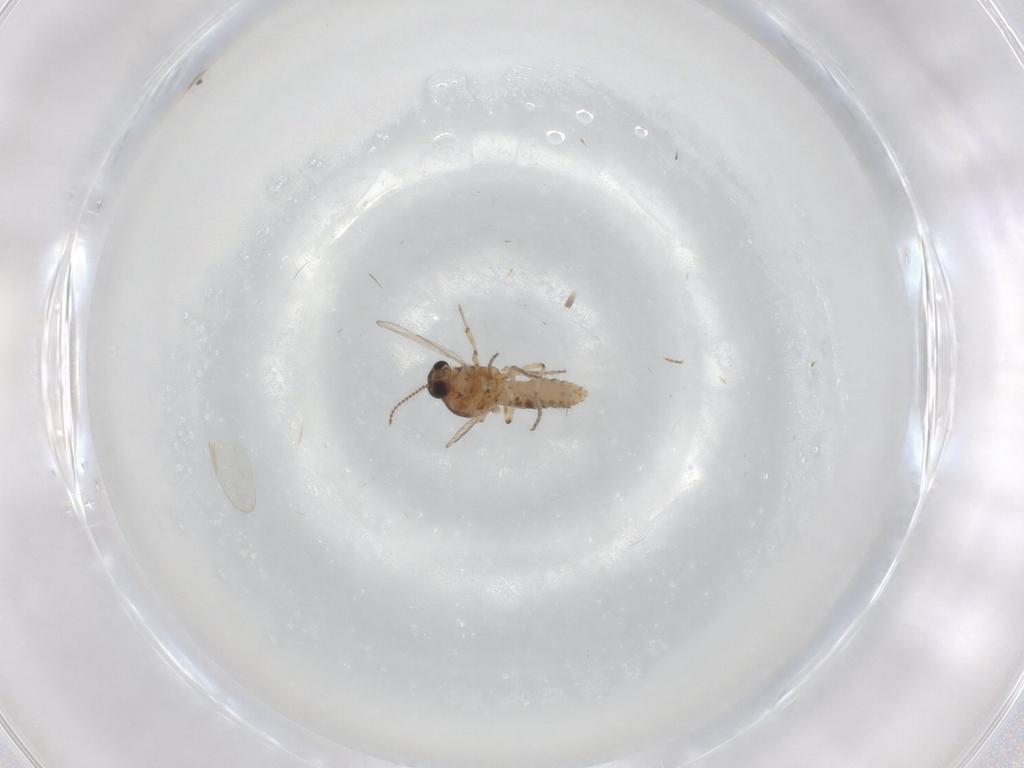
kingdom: Animalia
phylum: Arthropoda
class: Insecta
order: Diptera
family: Ceratopogonidae
